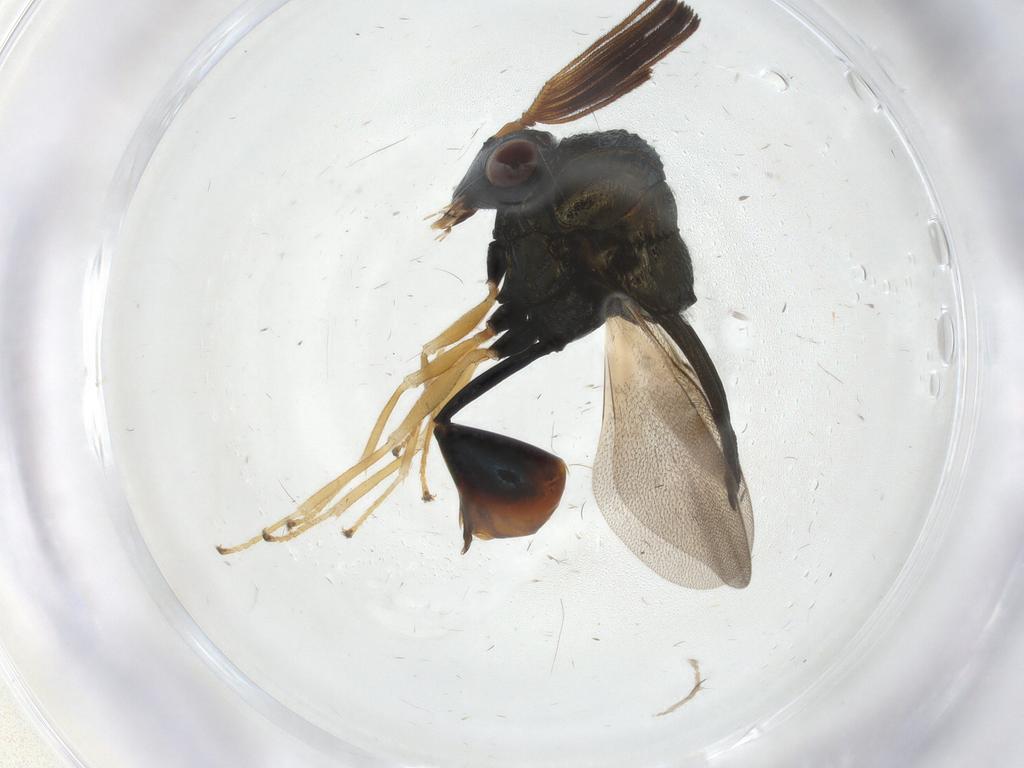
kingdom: Animalia
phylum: Arthropoda
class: Insecta
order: Diptera
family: Chironomidae
